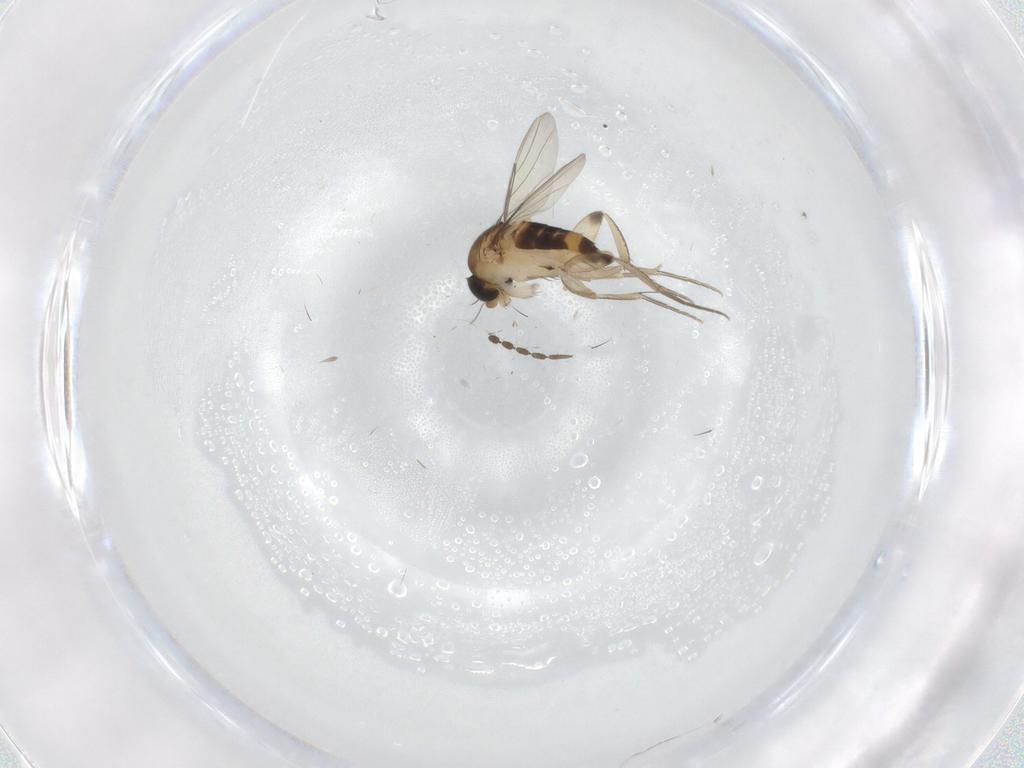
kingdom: Animalia
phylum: Arthropoda
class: Insecta
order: Diptera
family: Phoridae
